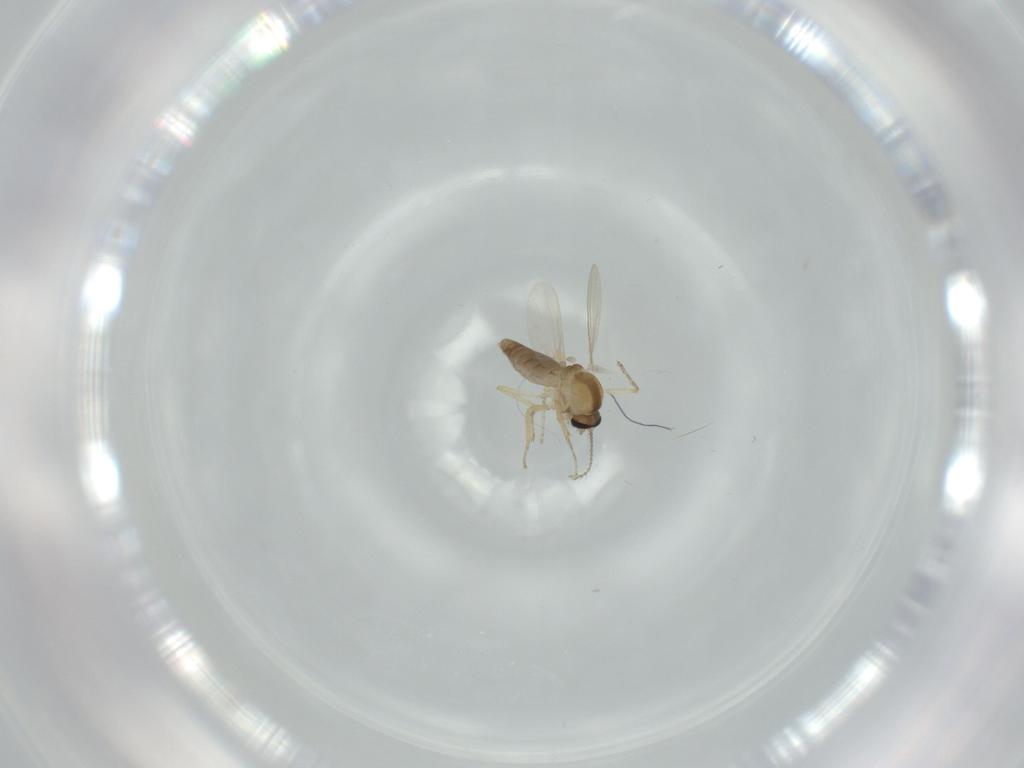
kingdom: Animalia
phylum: Arthropoda
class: Insecta
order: Diptera
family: Ceratopogonidae
